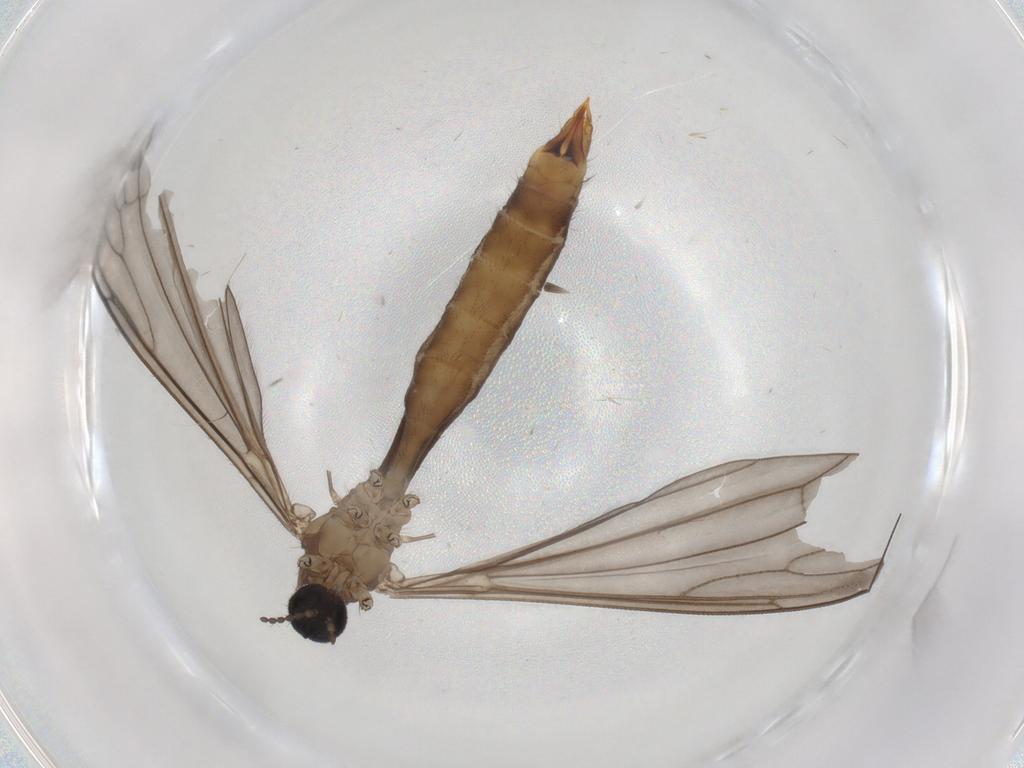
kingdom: Animalia
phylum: Arthropoda
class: Insecta
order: Diptera
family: Limoniidae
